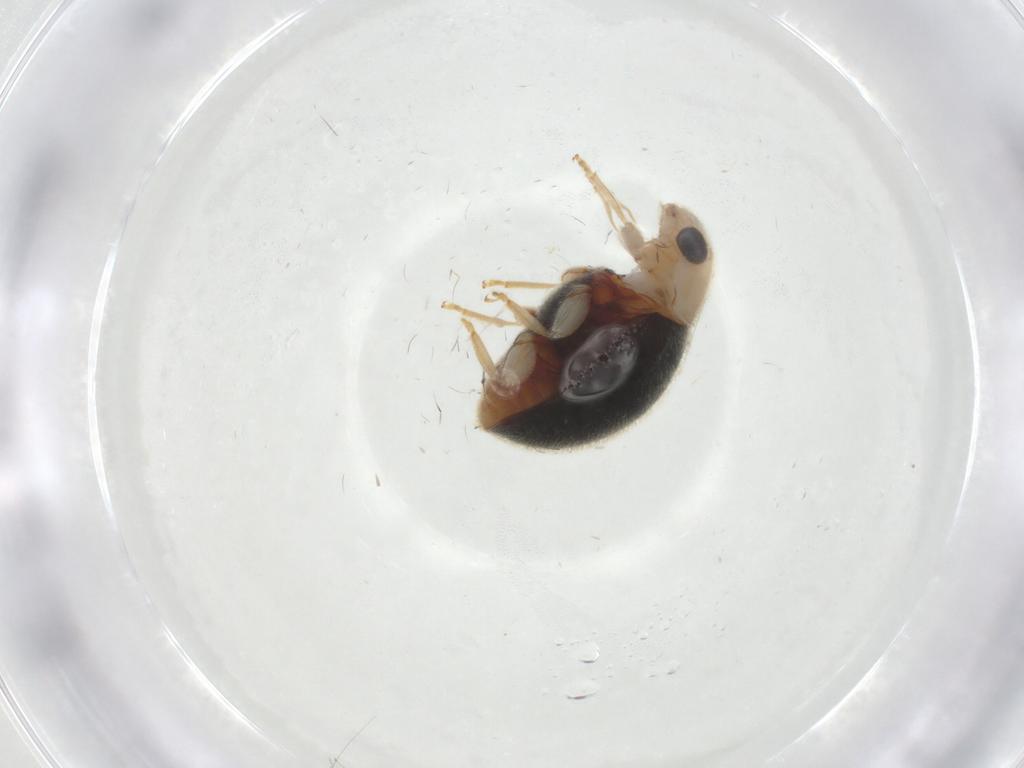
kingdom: Animalia
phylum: Arthropoda
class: Insecta
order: Coleoptera
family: Coccinellidae
